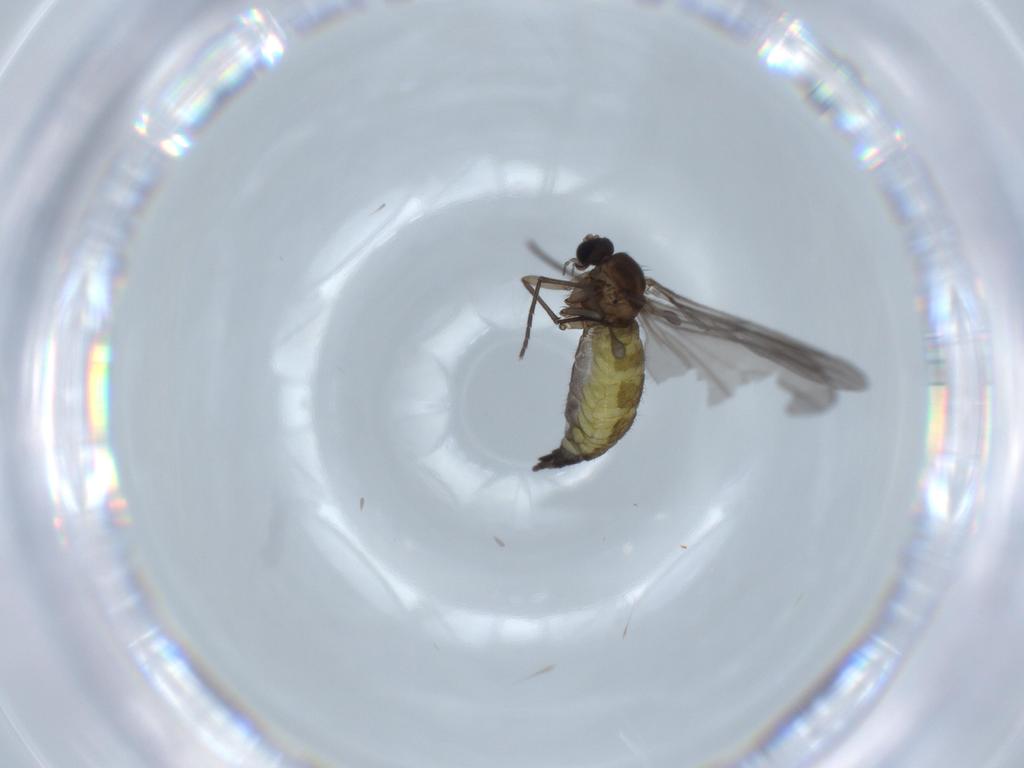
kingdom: Animalia
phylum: Arthropoda
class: Insecta
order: Diptera
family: Sciaridae
